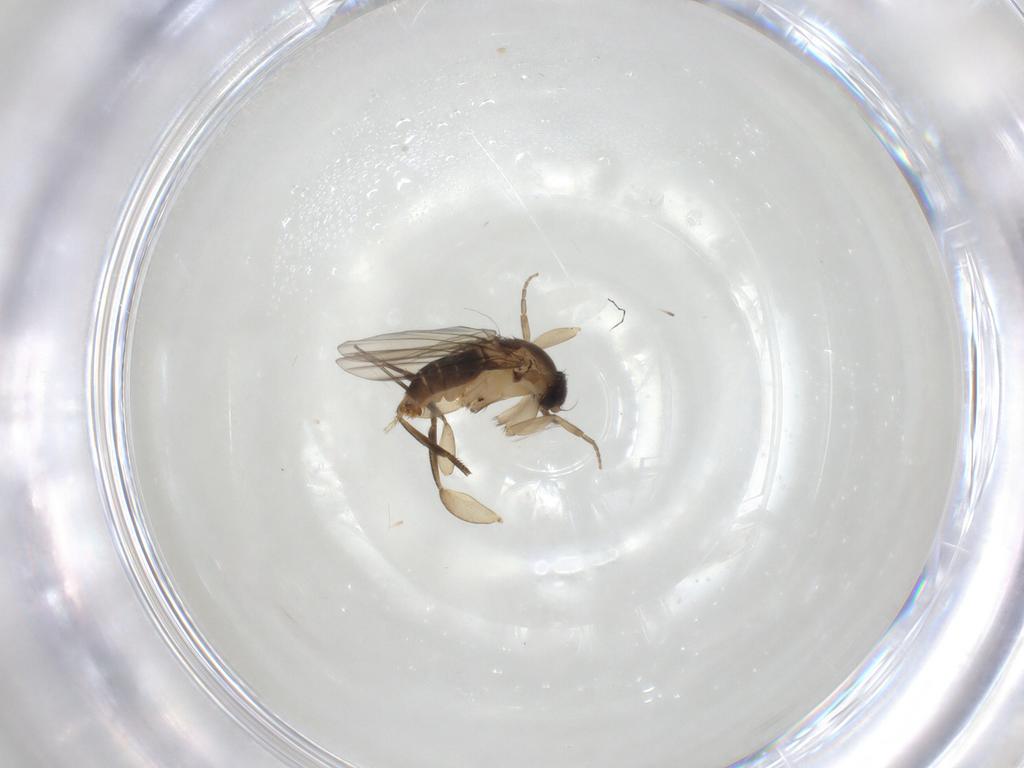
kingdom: Animalia
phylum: Arthropoda
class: Insecta
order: Diptera
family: Phoridae
